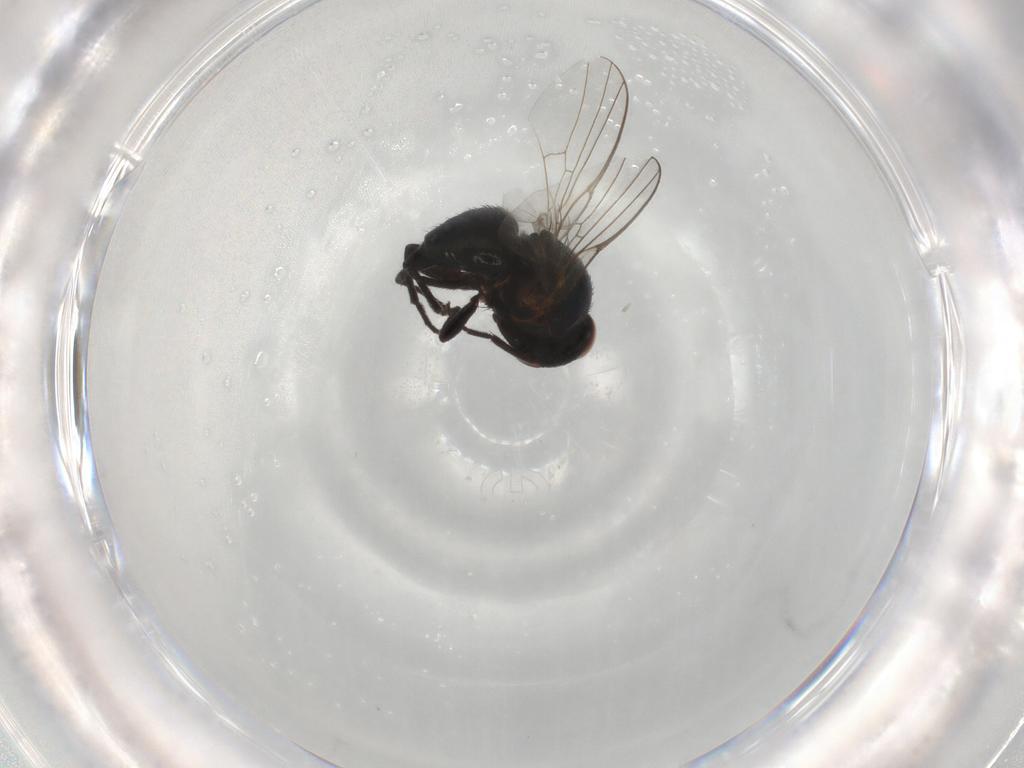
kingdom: Animalia
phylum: Arthropoda
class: Insecta
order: Diptera
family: Agromyzidae
